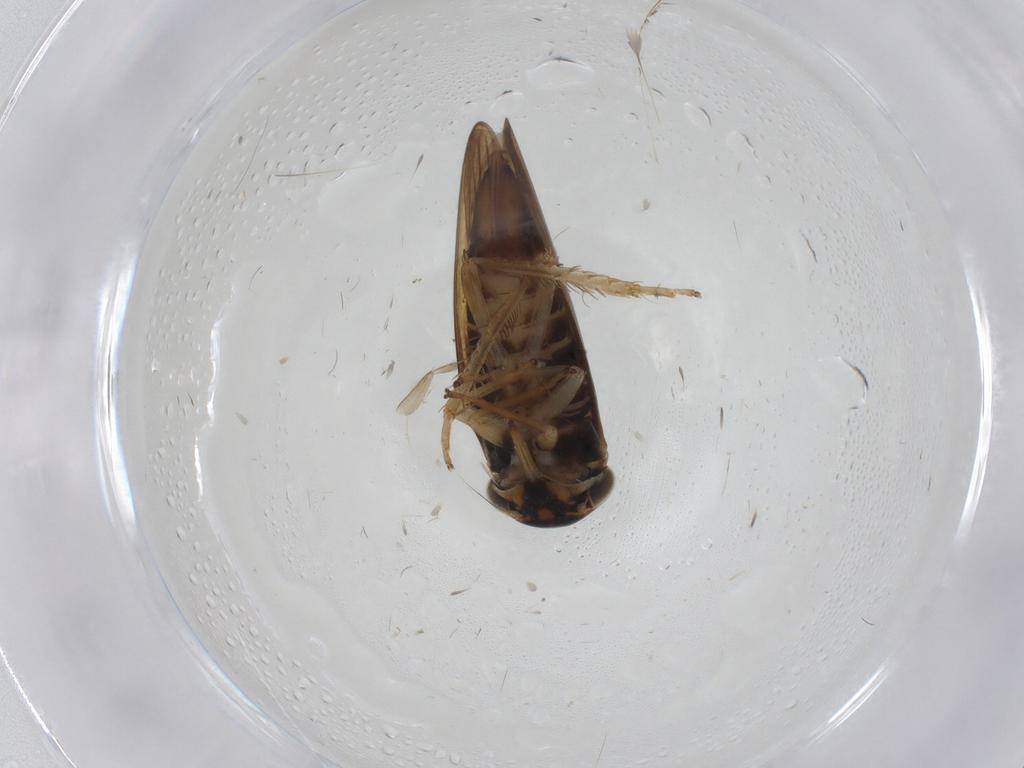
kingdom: Animalia
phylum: Arthropoda
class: Insecta
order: Hemiptera
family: Cicadellidae
